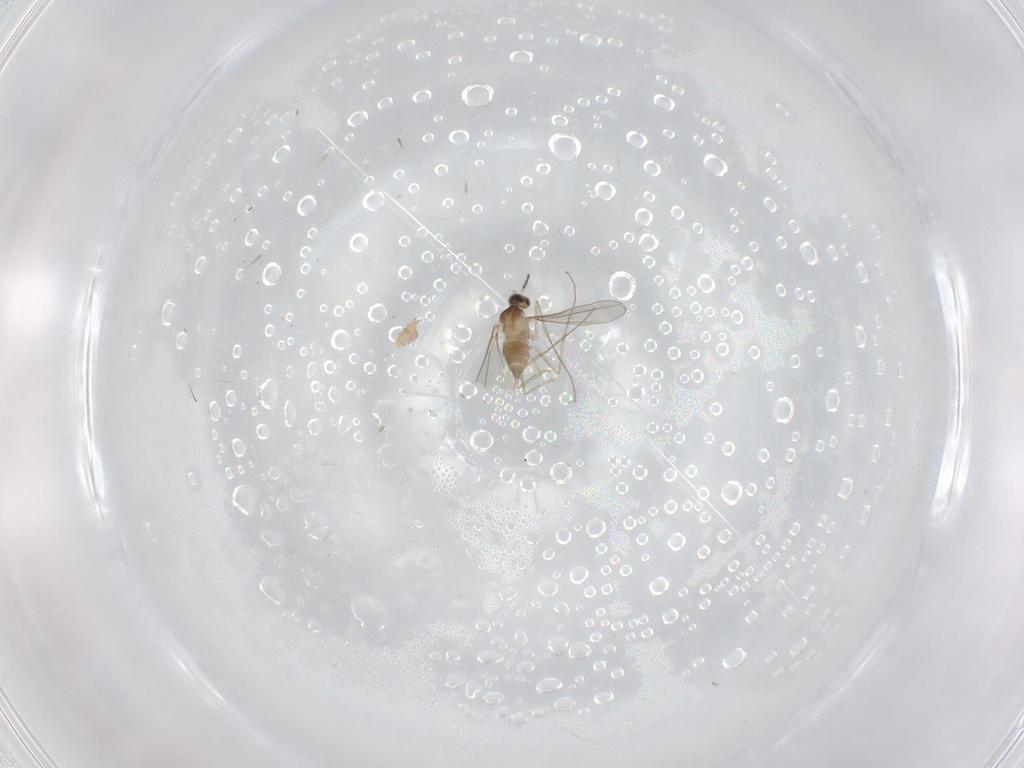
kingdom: Animalia
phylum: Arthropoda
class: Insecta
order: Diptera
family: Cecidomyiidae
